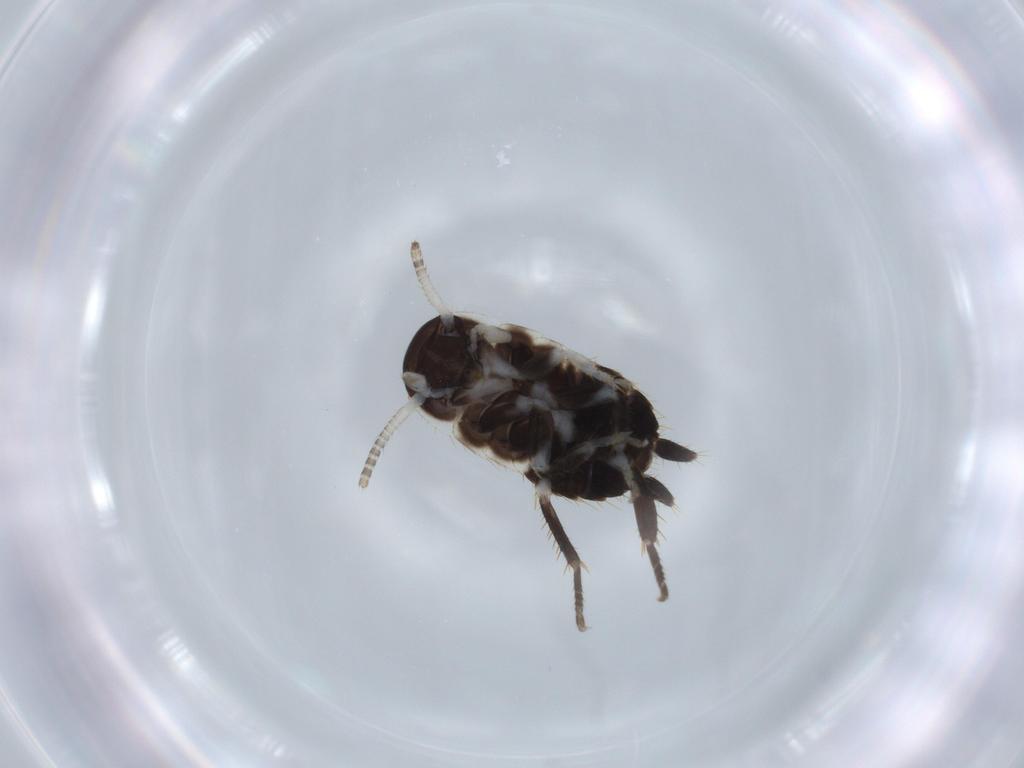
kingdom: Animalia
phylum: Arthropoda
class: Insecta
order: Blattodea
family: Ectobiidae
